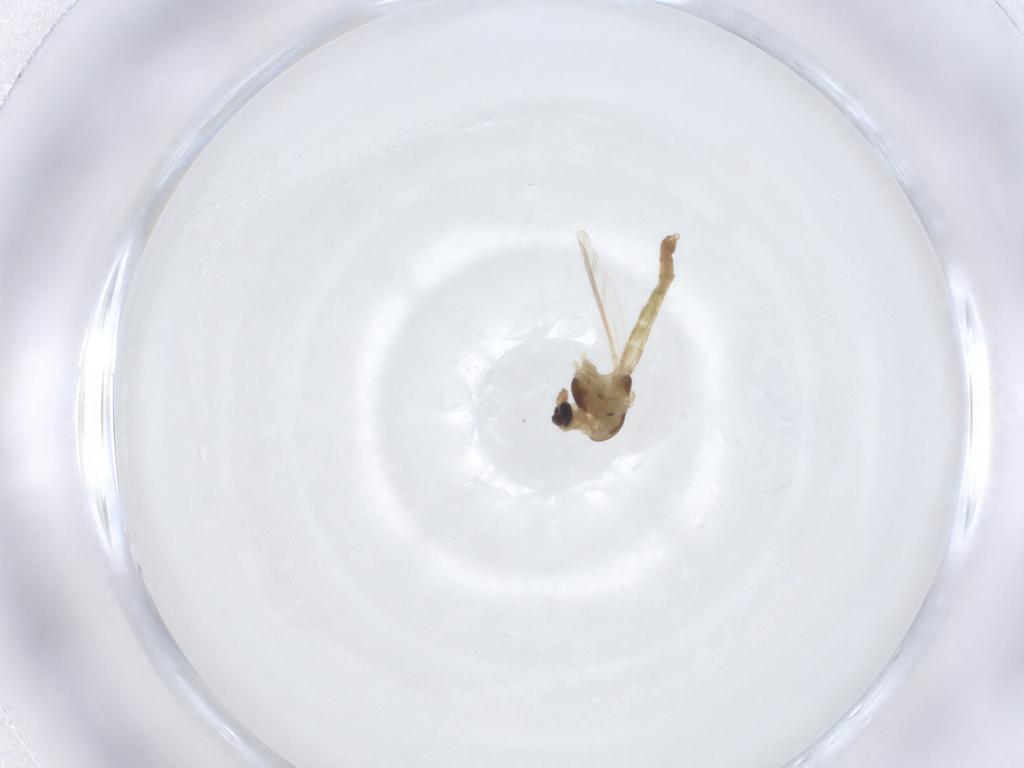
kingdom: Animalia
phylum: Arthropoda
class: Insecta
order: Diptera
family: Chironomidae
